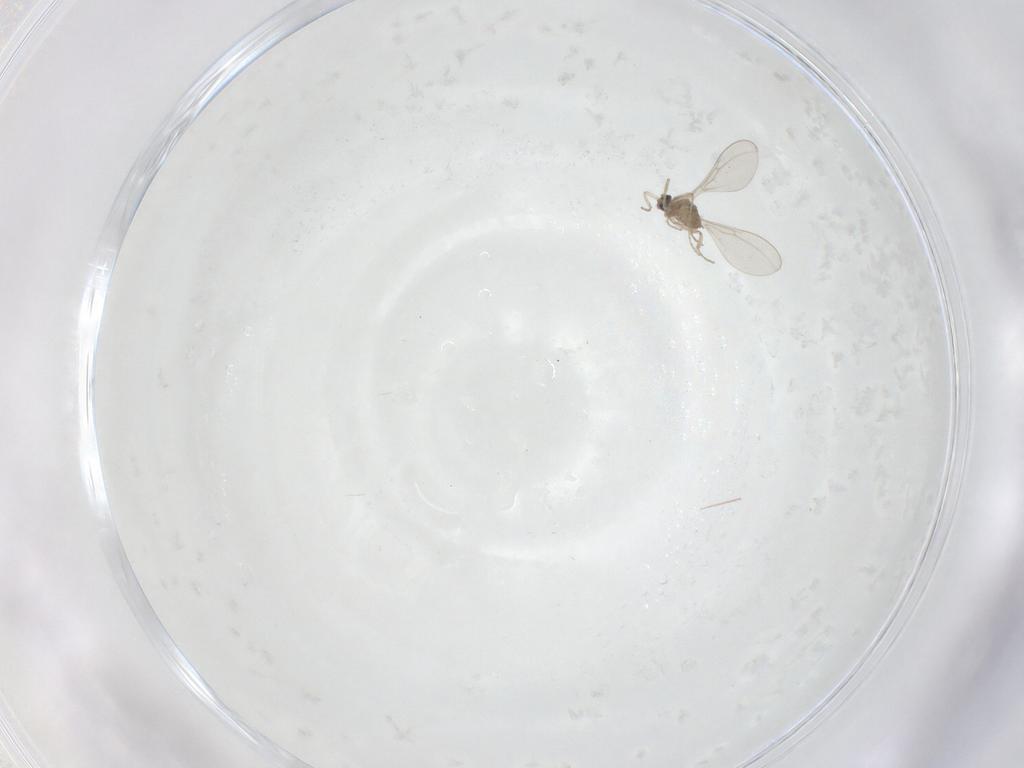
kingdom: Animalia
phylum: Arthropoda
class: Insecta
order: Diptera
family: Cecidomyiidae
